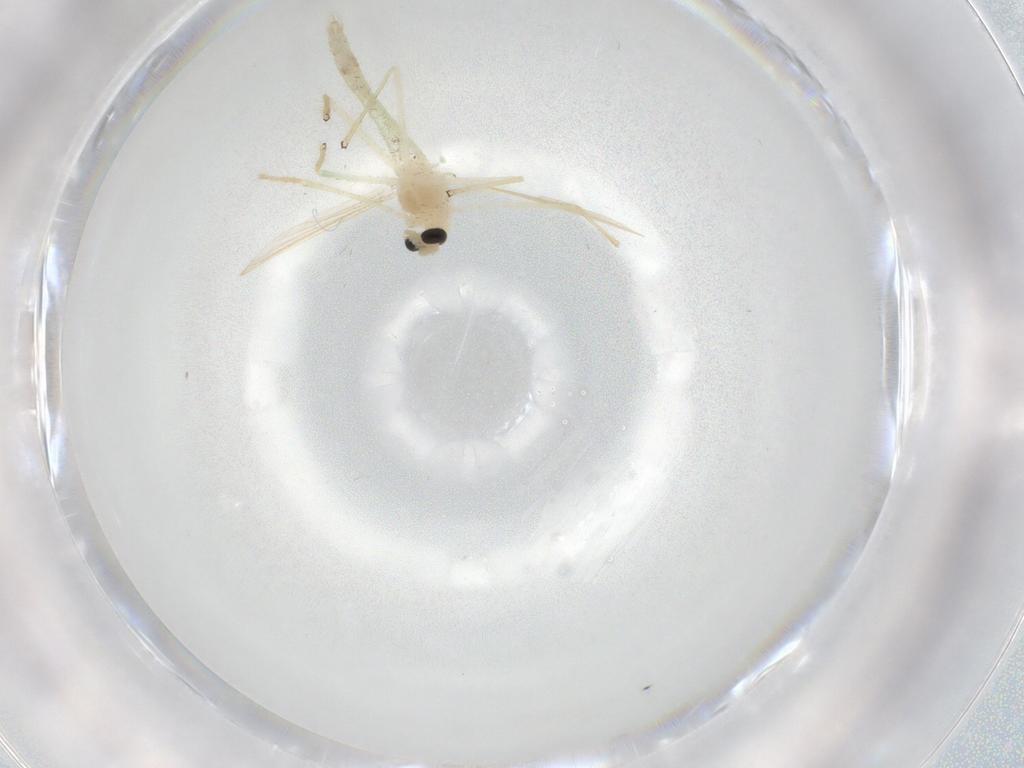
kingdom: Animalia
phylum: Arthropoda
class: Insecta
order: Diptera
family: Chironomidae
